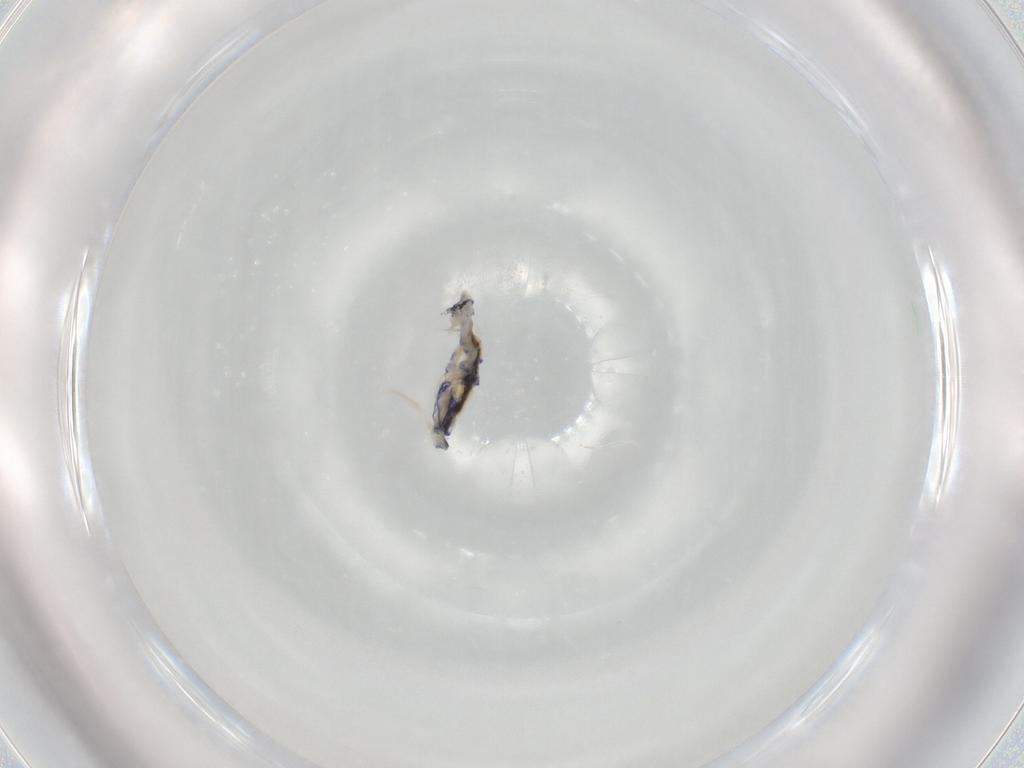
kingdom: Animalia
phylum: Arthropoda
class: Collembola
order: Entomobryomorpha
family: Entomobryidae
